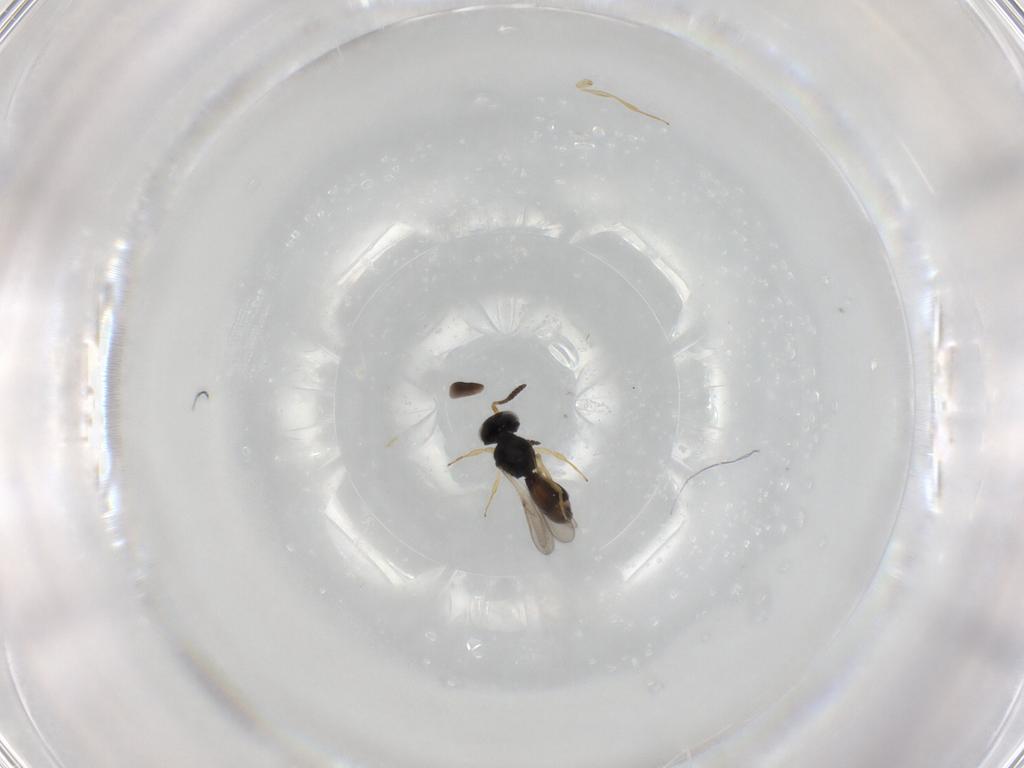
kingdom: Animalia
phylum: Arthropoda
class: Insecta
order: Hymenoptera
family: Scelionidae
